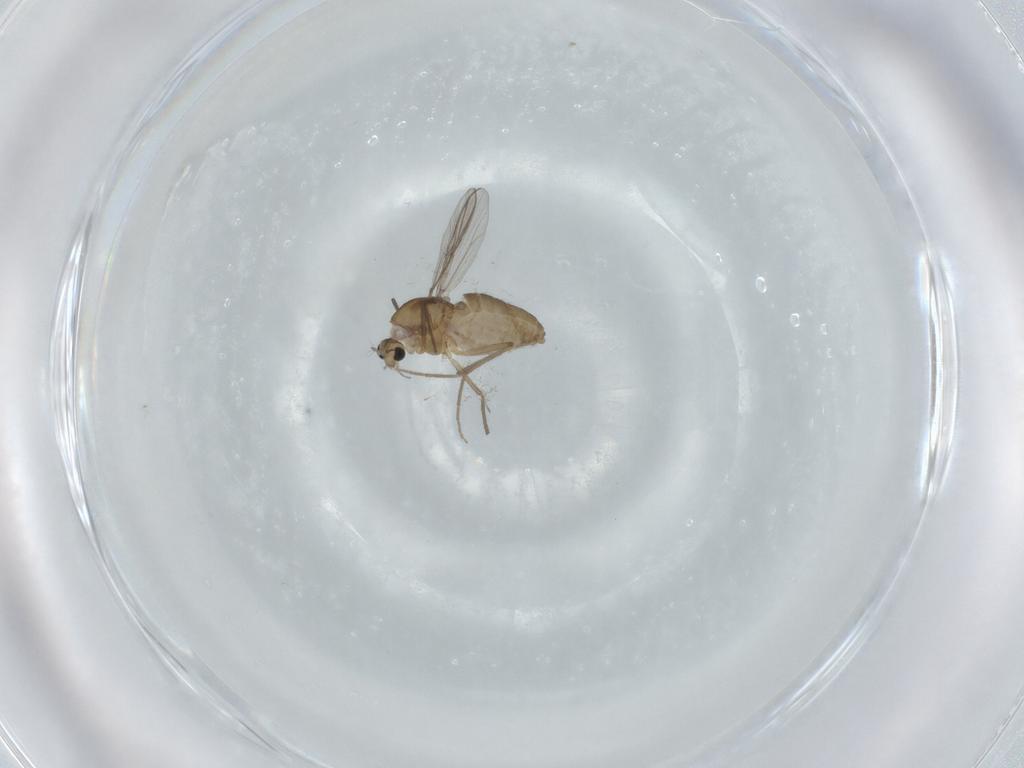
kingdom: Animalia
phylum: Arthropoda
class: Insecta
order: Diptera
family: Chironomidae
